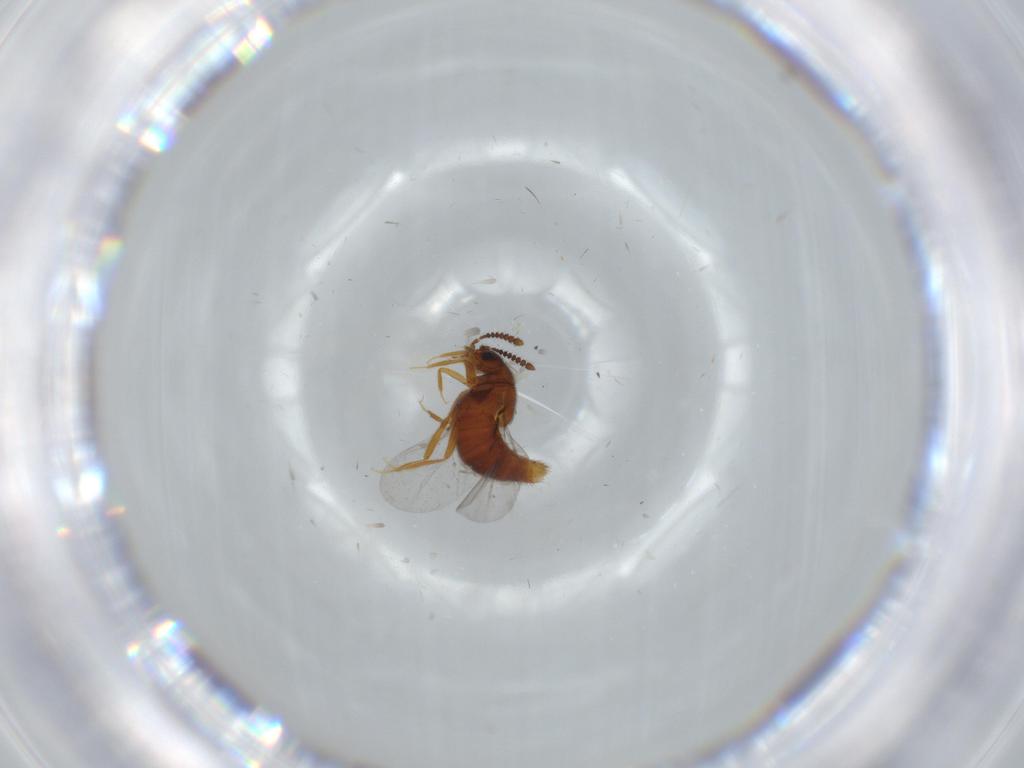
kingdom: Animalia
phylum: Arthropoda
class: Insecta
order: Coleoptera
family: Staphylinidae
